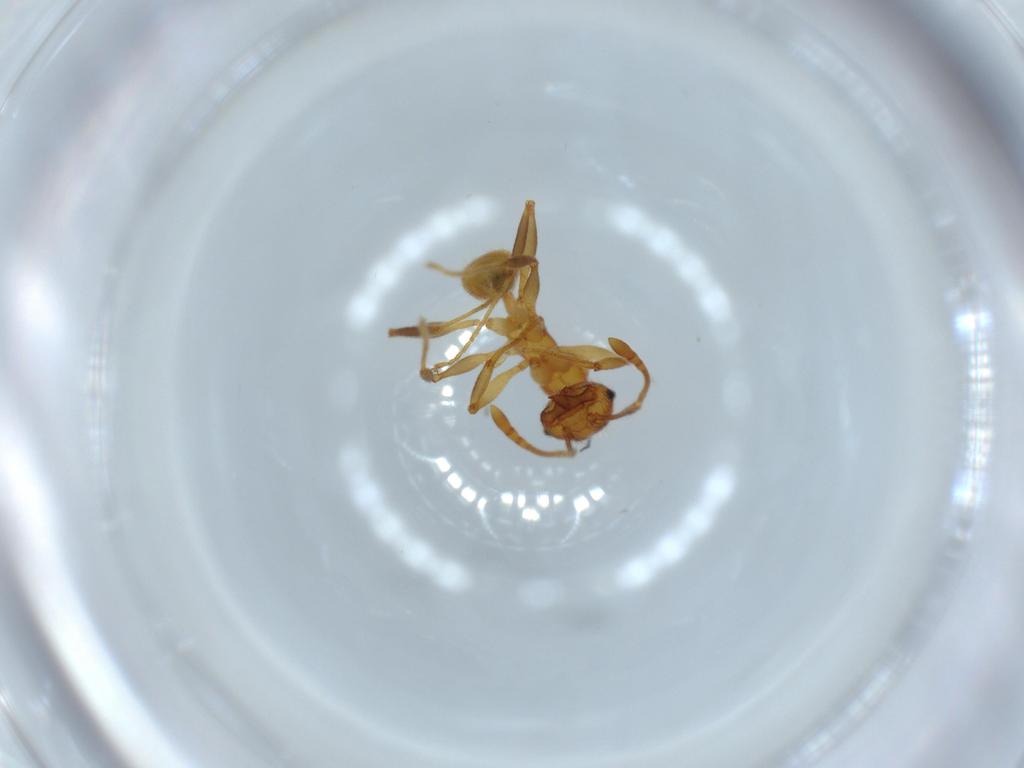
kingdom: Animalia
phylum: Arthropoda
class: Insecta
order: Hymenoptera
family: Formicidae
